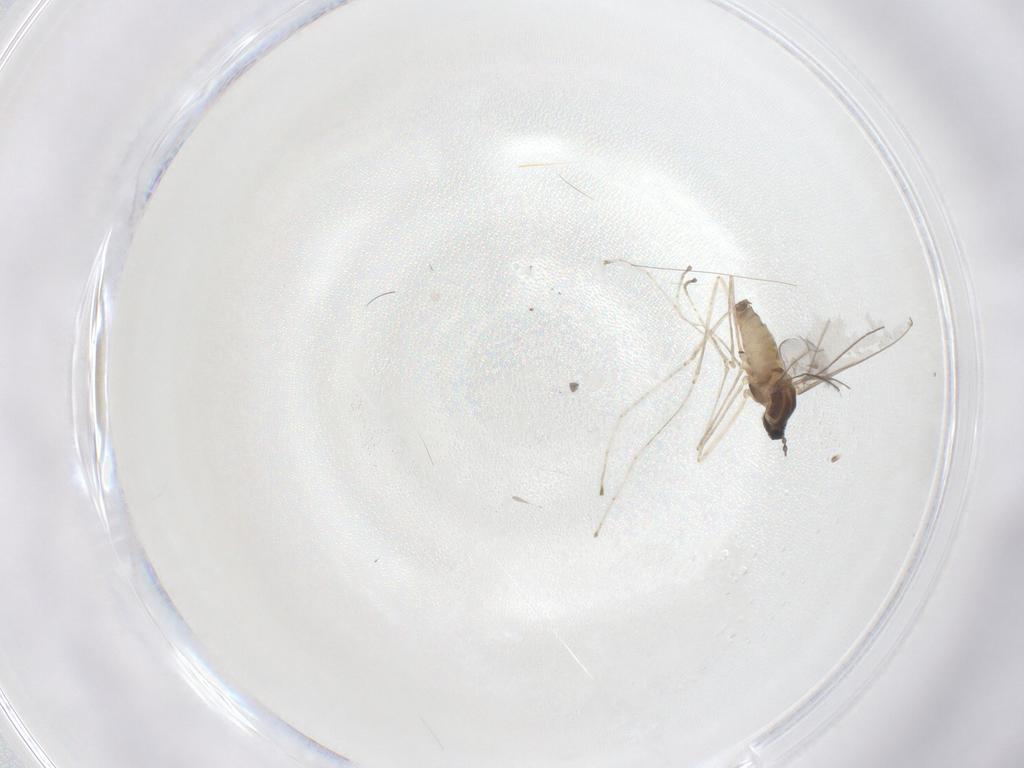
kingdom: Animalia
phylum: Arthropoda
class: Insecta
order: Diptera
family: Cecidomyiidae
